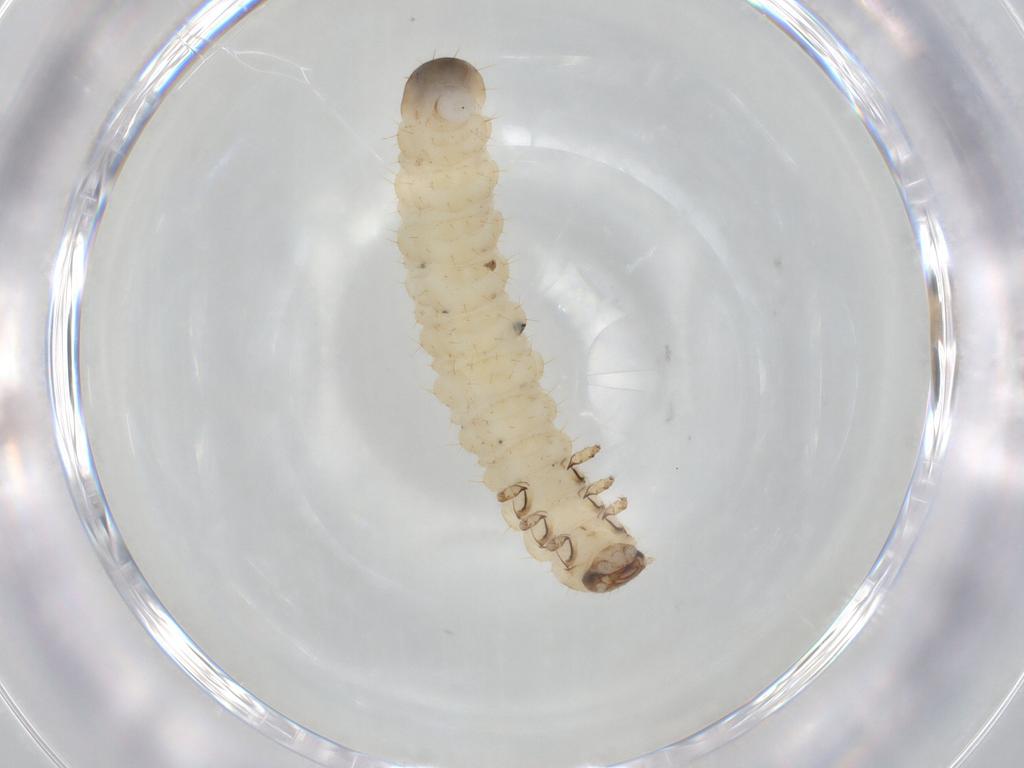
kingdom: Animalia
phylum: Arthropoda
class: Insecta
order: Coleoptera
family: Chrysomelidae
